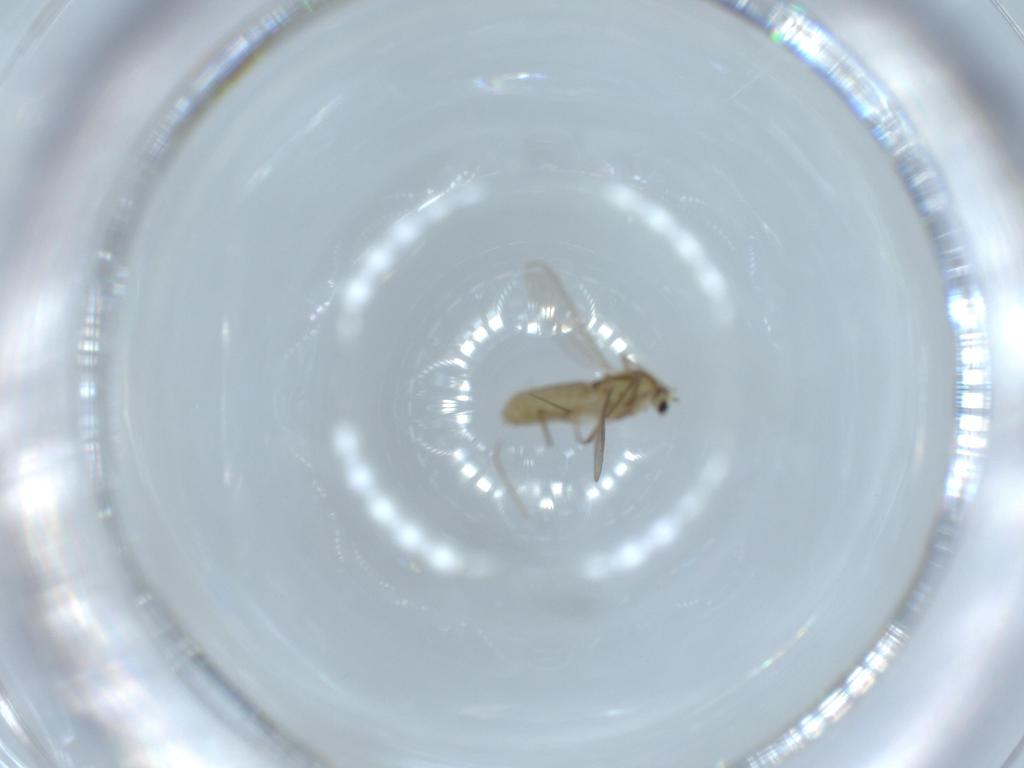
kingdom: Animalia
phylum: Arthropoda
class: Insecta
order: Diptera
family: Chironomidae
